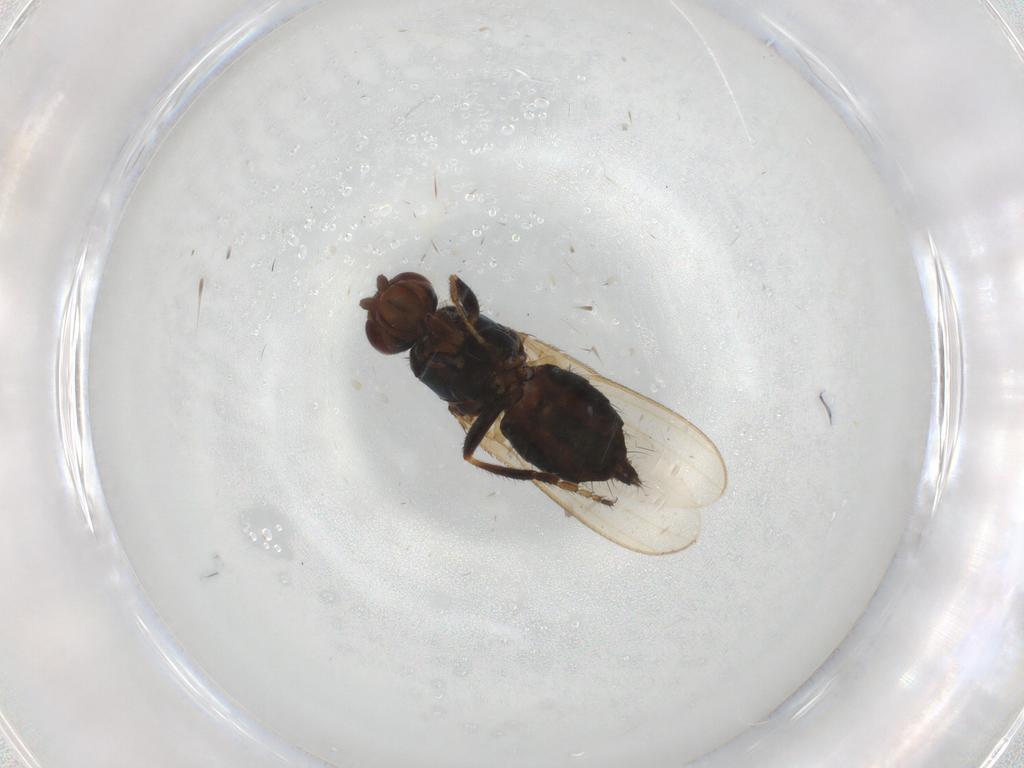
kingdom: Animalia
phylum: Arthropoda
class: Insecta
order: Diptera
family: Sphaeroceridae
